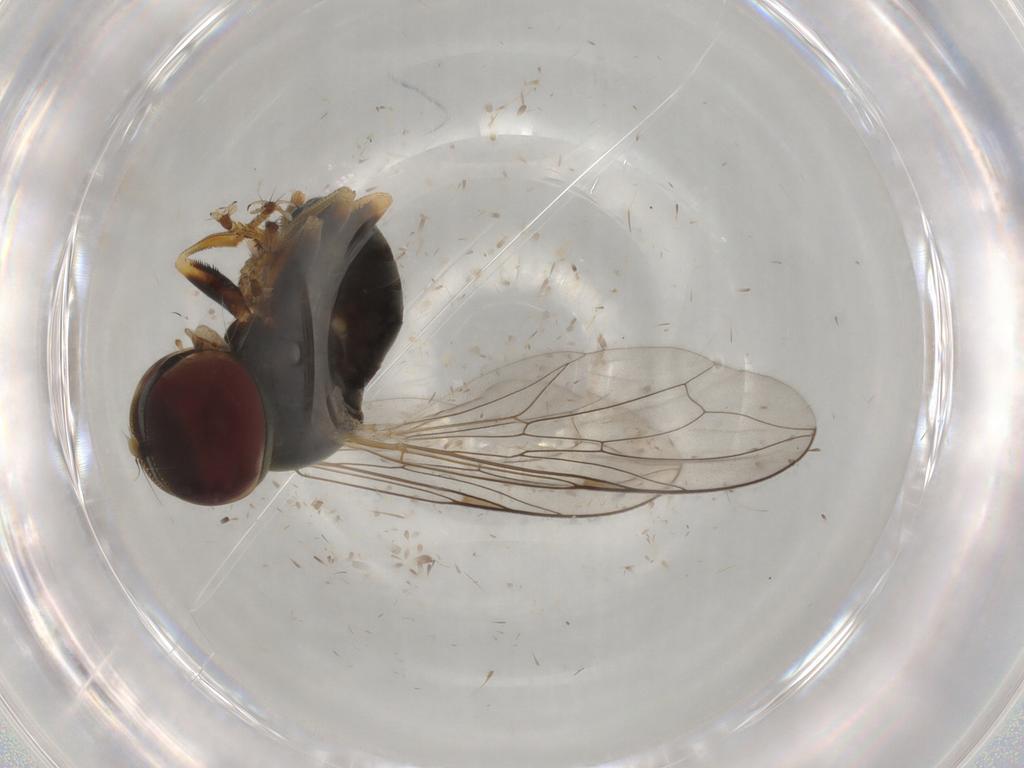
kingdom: Animalia
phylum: Arthropoda
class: Insecta
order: Diptera
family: Pipunculidae
